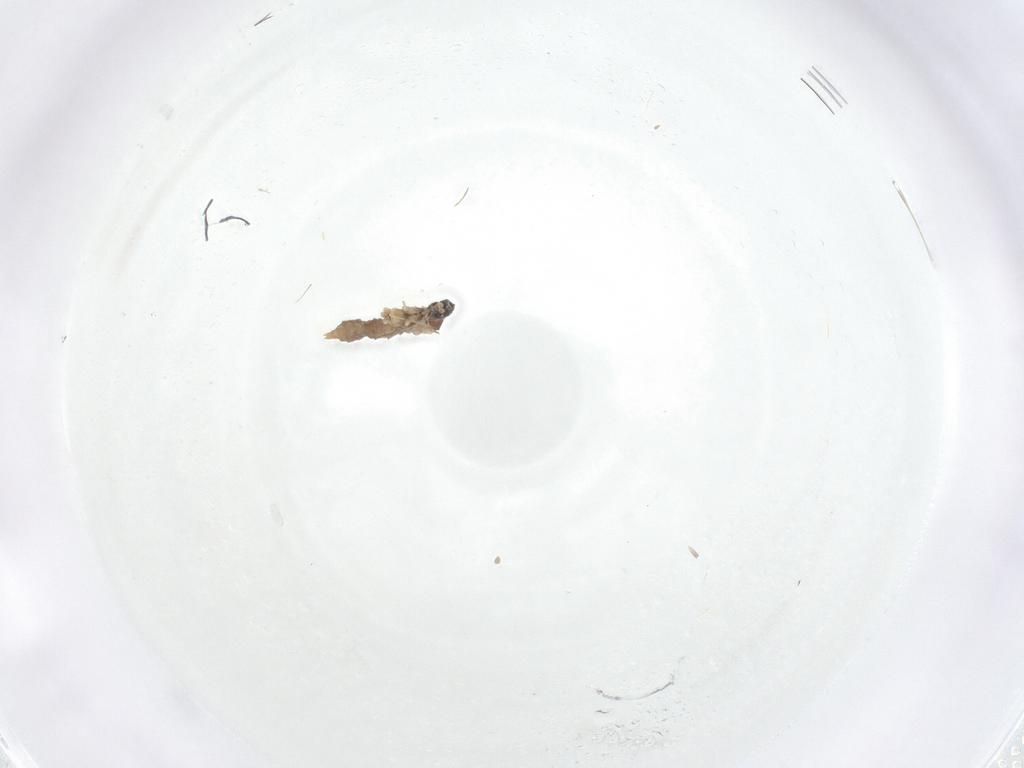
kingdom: Animalia
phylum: Arthropoda
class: Insecta
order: Diptera
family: Cecidomyiidae
